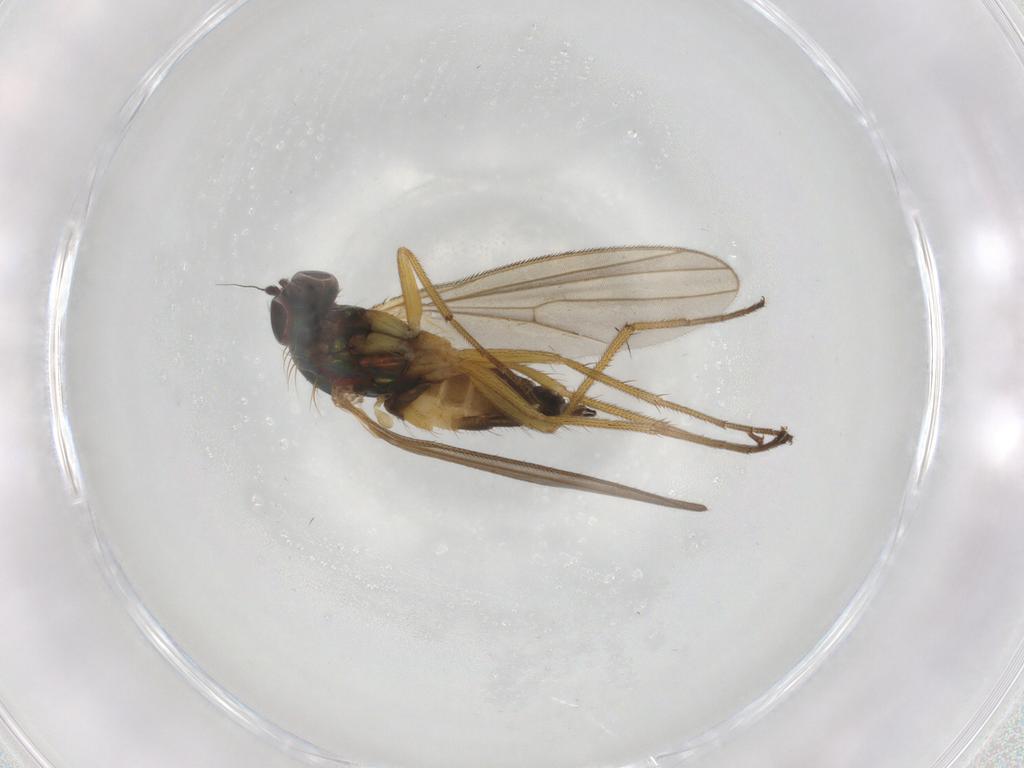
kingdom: Animalia
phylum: Arthropoda
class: Insecta
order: Diptera
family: Dolichopodidae
